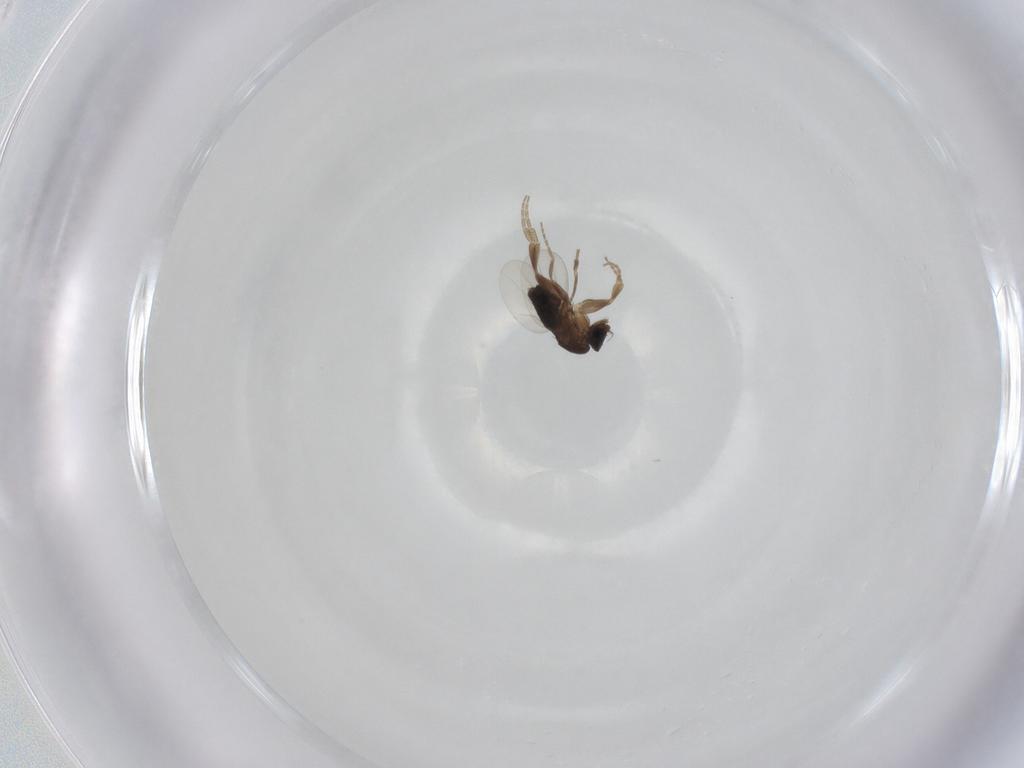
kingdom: Animalia
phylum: Arthropoda
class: Insecta
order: Diptera
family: Phoridae
